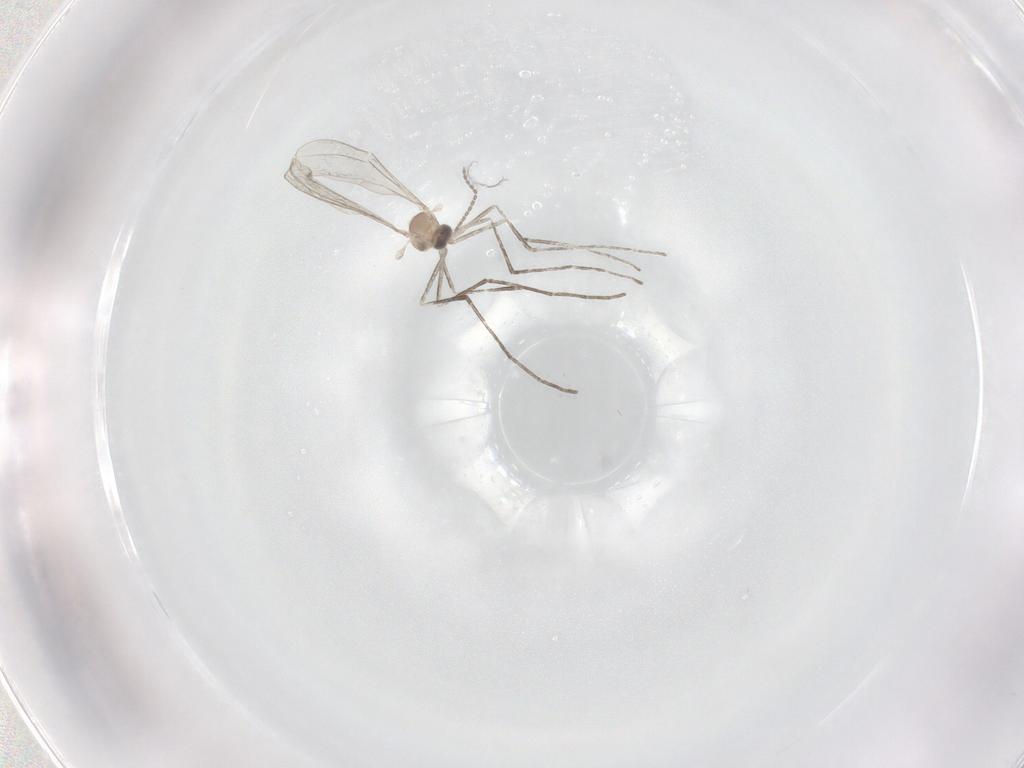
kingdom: Animalia
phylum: Arthropoda
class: Insecta
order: Diptera
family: Cecidomyiidae
